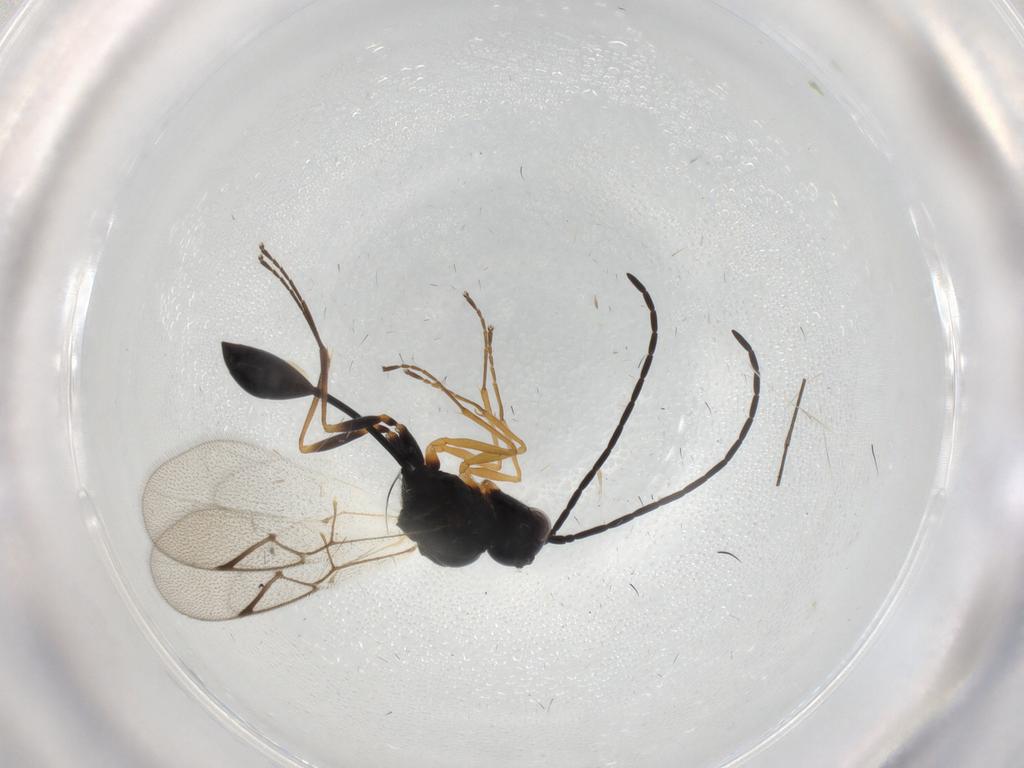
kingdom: Animalia
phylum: Arthropoda
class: Insecta
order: Hymenoptera
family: Figitidae
